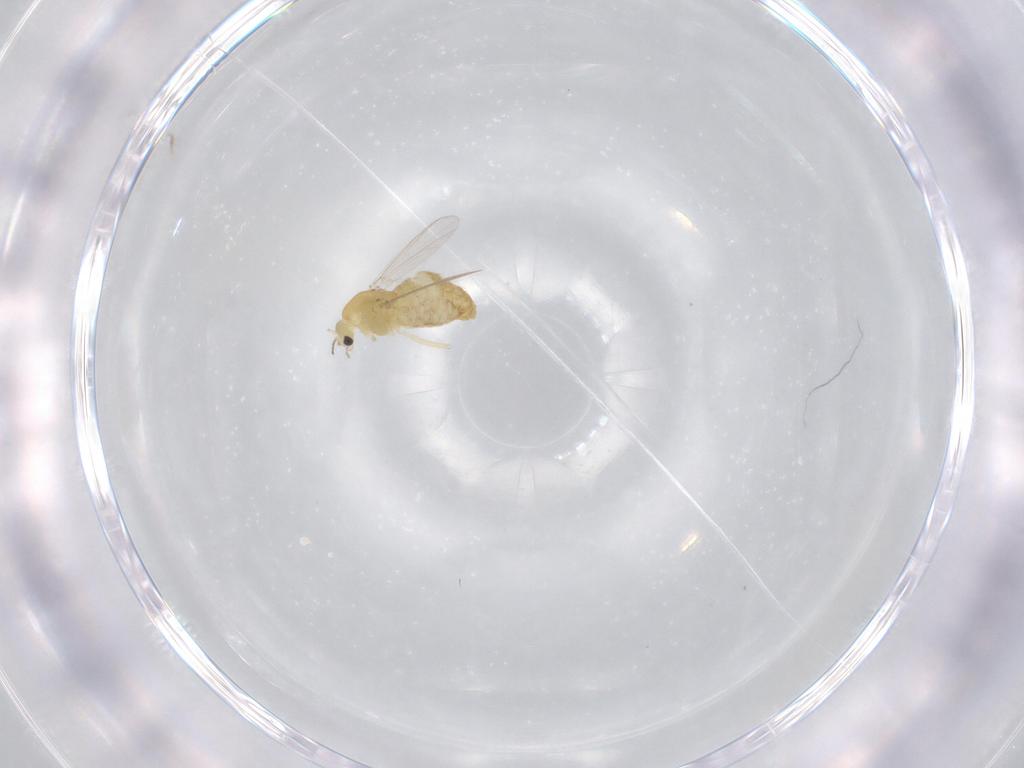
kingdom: Animalia
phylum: Arthropoda
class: Insecta
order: Diptera
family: Chironomidae
